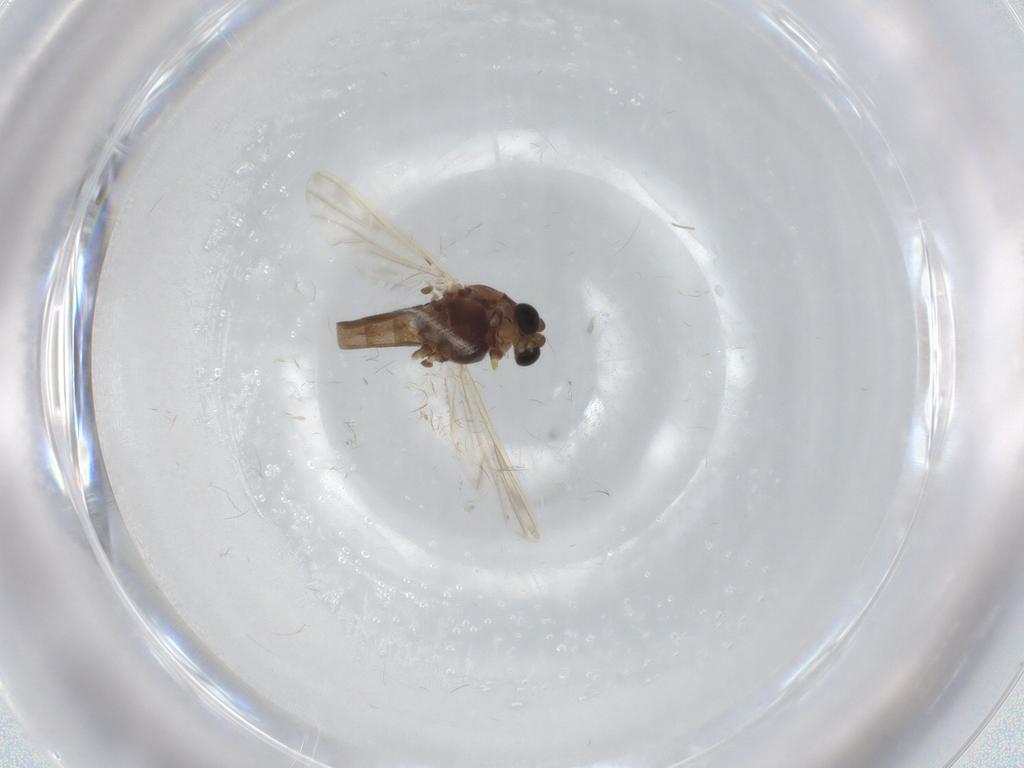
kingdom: Animalia
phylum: Arthropoda
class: Insecta
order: Diptera
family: Chironomidae
